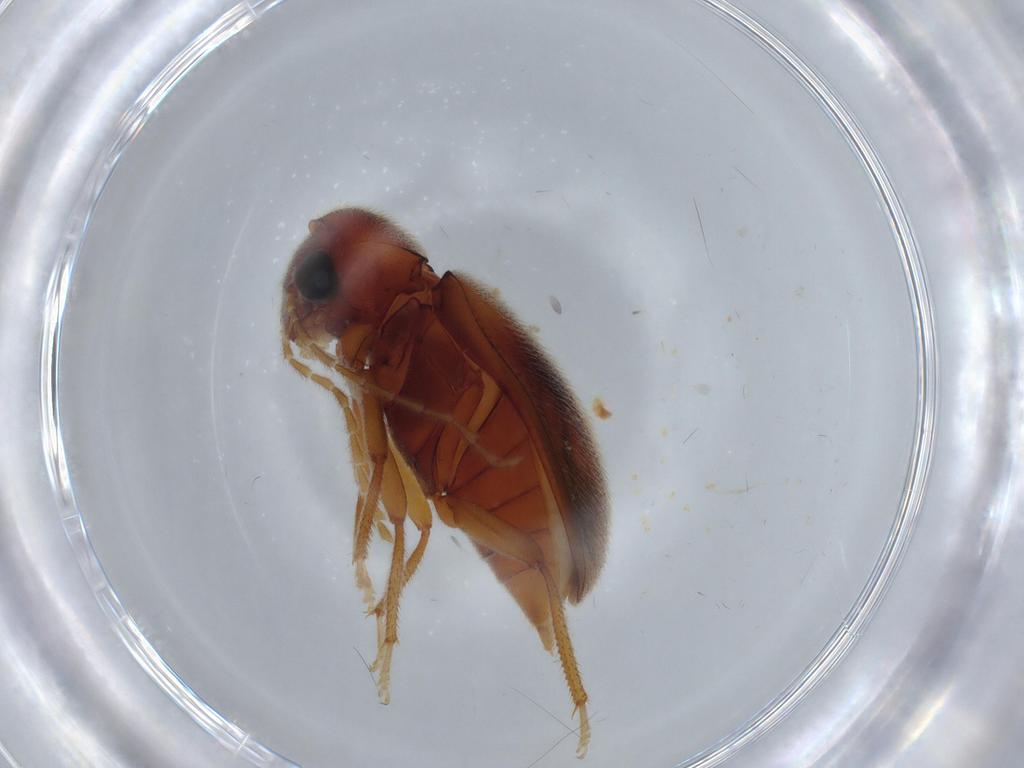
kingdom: Animalia
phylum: Arthropoda
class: Insecta
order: Coleoptera
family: Ptilodactylidae
